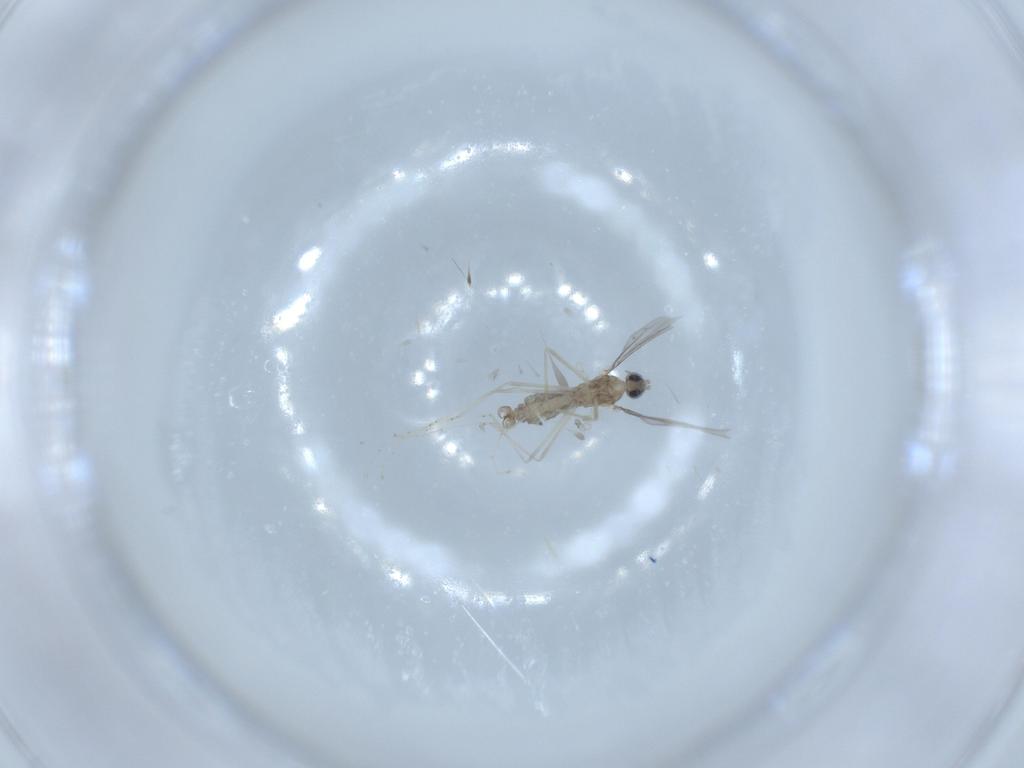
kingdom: Animalia
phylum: Arthropoda
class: Insecta
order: Diptera
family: Cecidomyiidae
